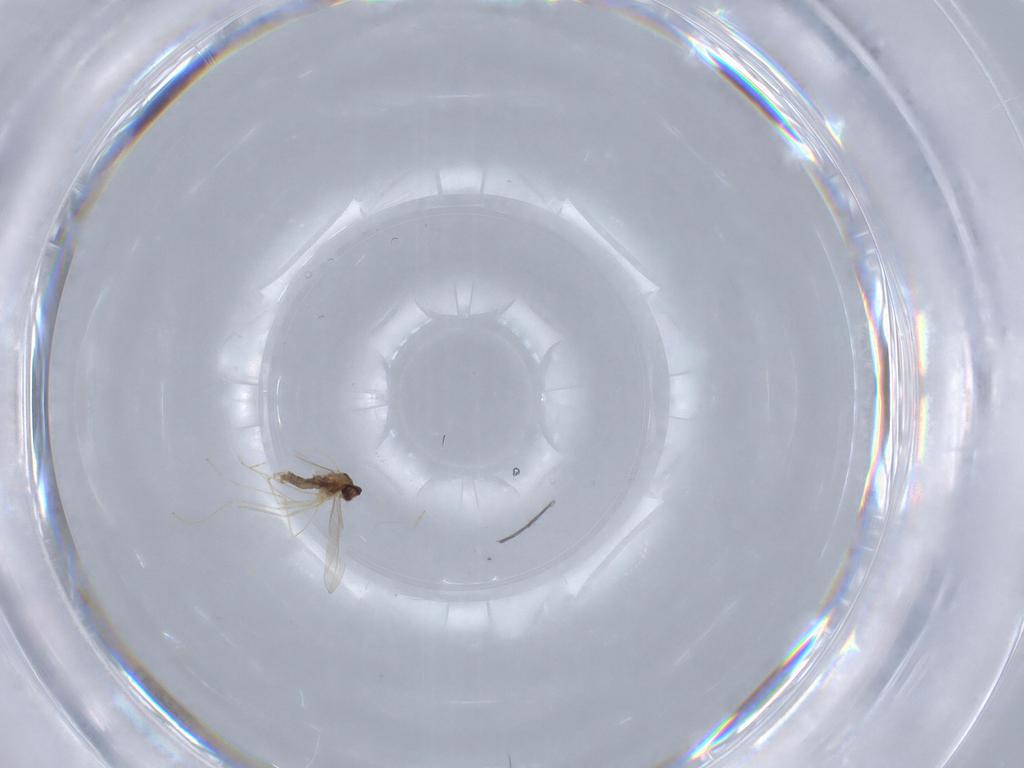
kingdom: Animalia
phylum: Arthropoda
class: Insecta
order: Diptera
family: Cecidomyiidae
